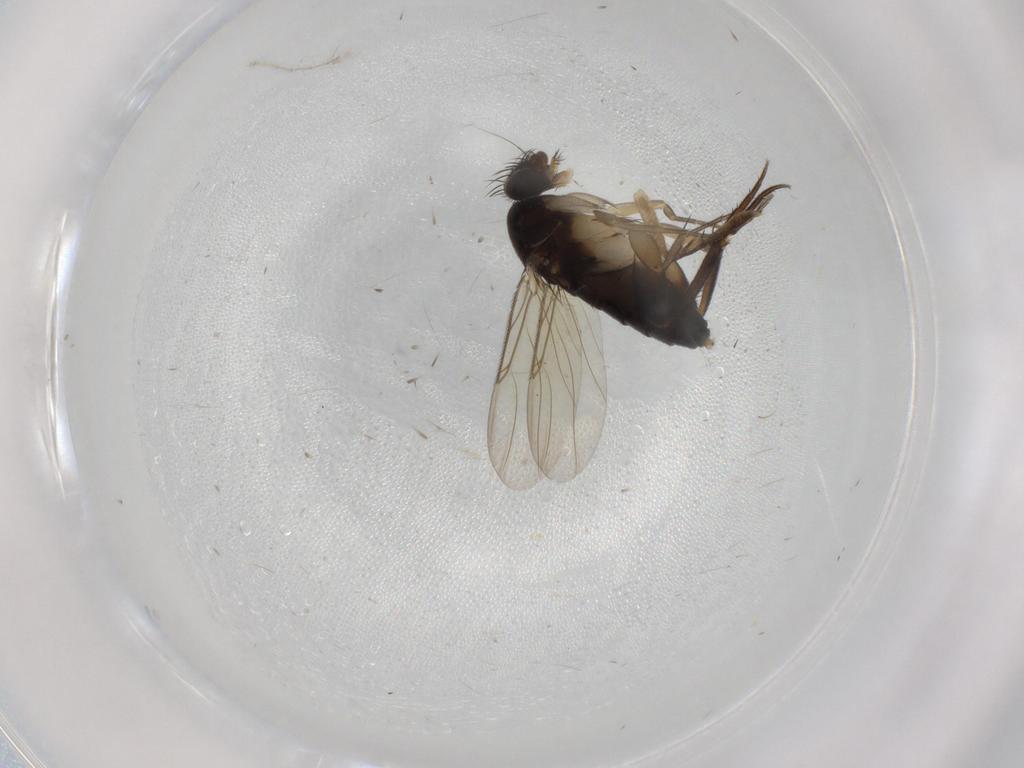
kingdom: Animalia
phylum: Arthropoda
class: Insecta
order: Diptera
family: Phoridae
